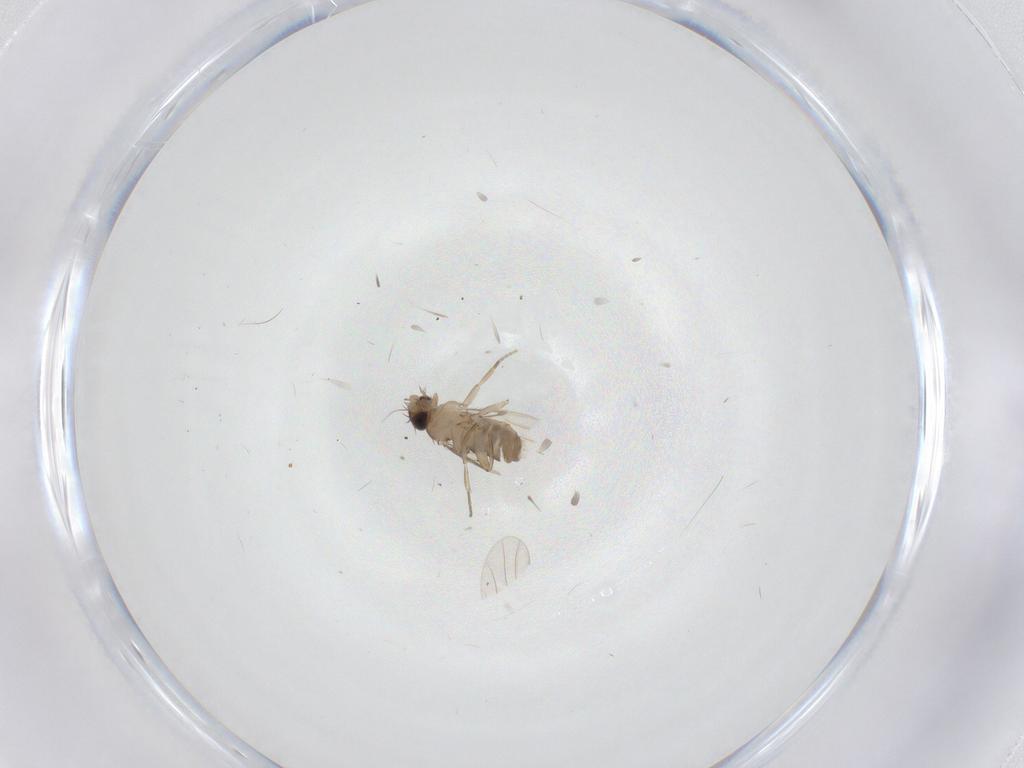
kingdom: Animalia
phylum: Arthropoda
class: Insecta
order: Diptera
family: Phoridae
